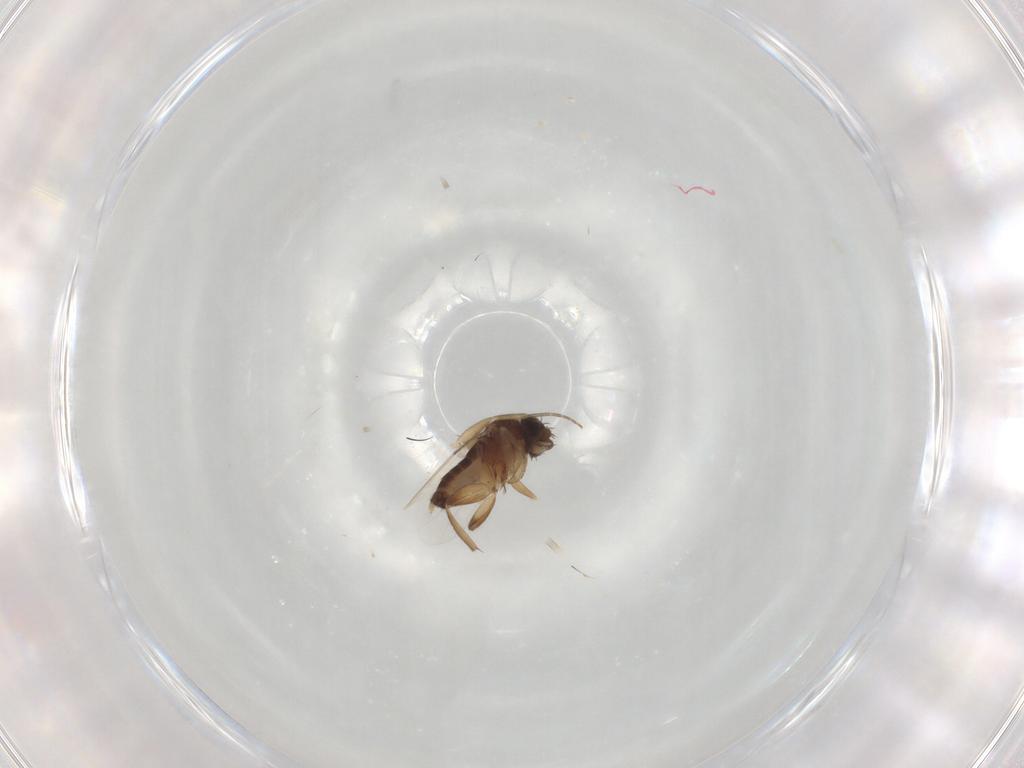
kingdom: Animalia
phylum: Arthropoda
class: Insecta
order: Diptera
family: Phoridae
